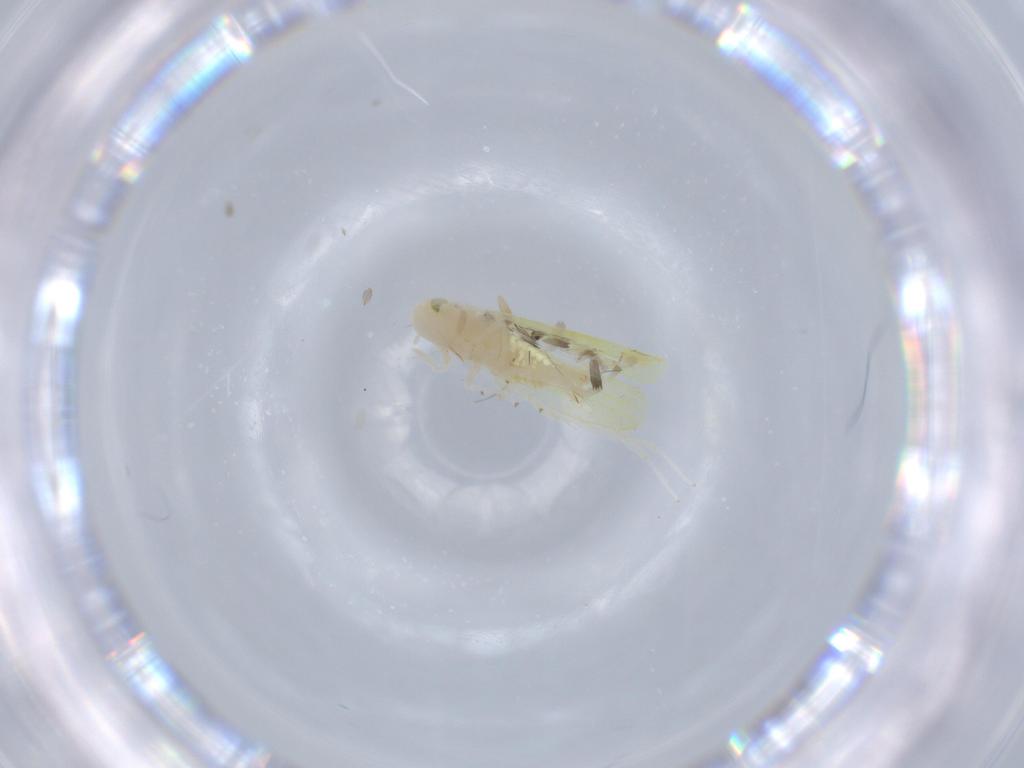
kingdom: Animalia
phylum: Arthropoda
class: Insecta
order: Hemiptera
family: Cicadellidae
